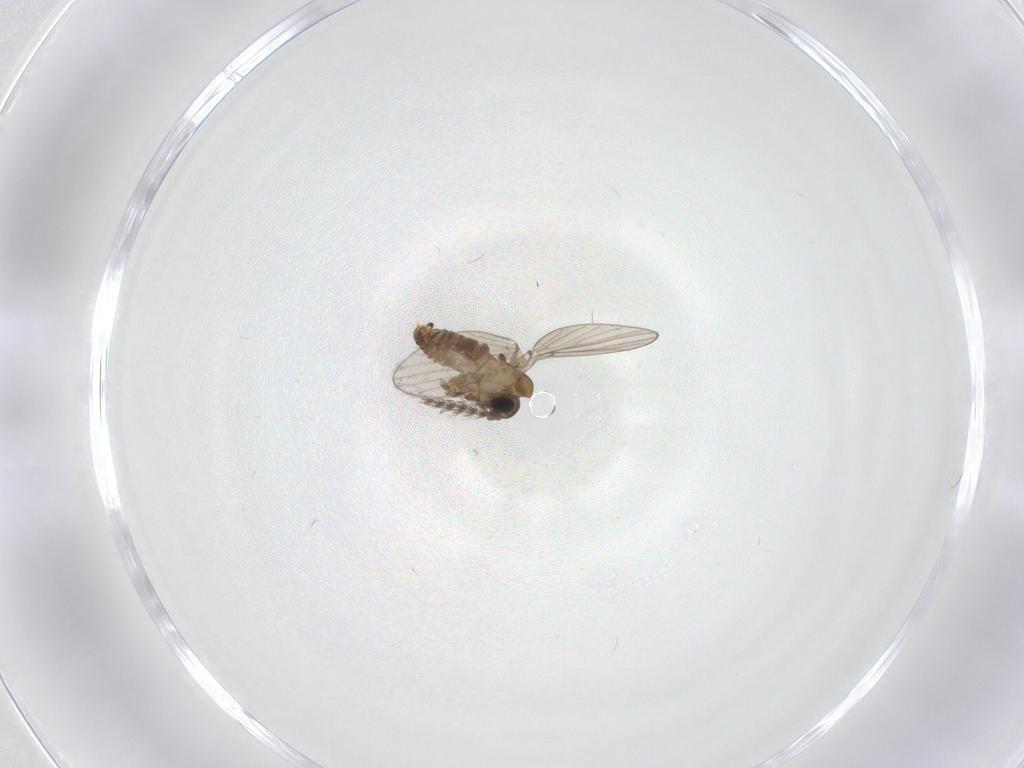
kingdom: Animalia
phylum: Arthropoda
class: Insecta
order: Diptera
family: Psychodidae
